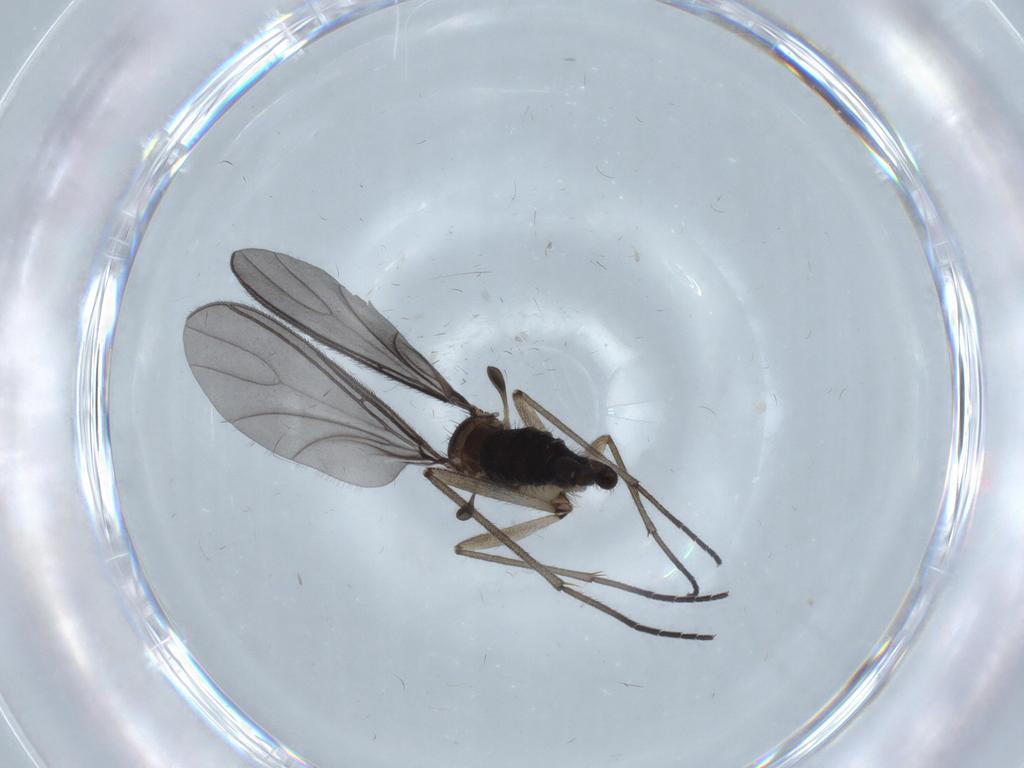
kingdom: Animalia
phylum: Arthropoda
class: Insecta
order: Diptera
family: Sciaridae
